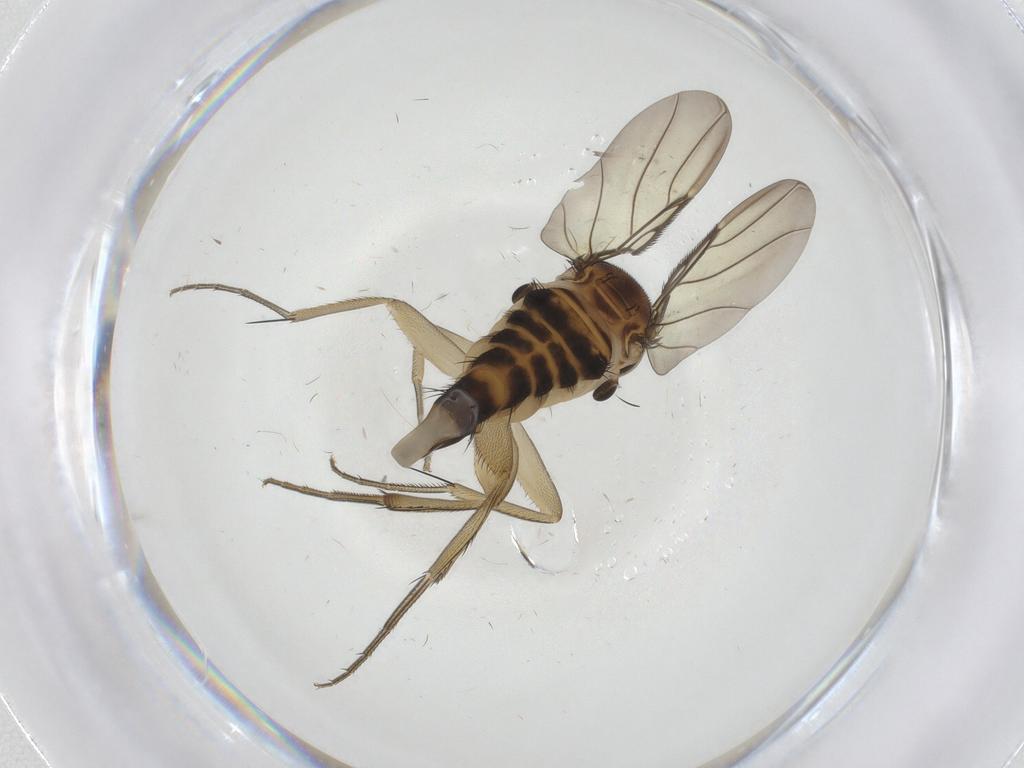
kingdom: Animalia
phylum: Arthropoda
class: Insecta
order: Diptera
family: Phoridae
